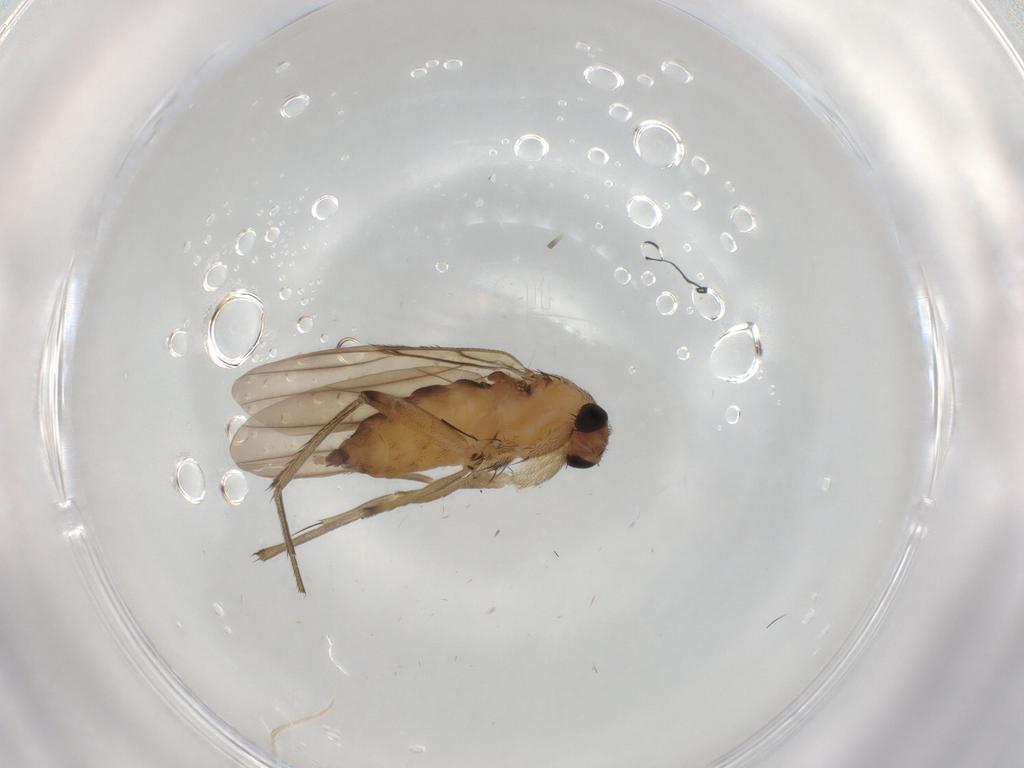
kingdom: Animalia
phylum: Arthropoda
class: Insecta
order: Diptera
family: Phoridae
